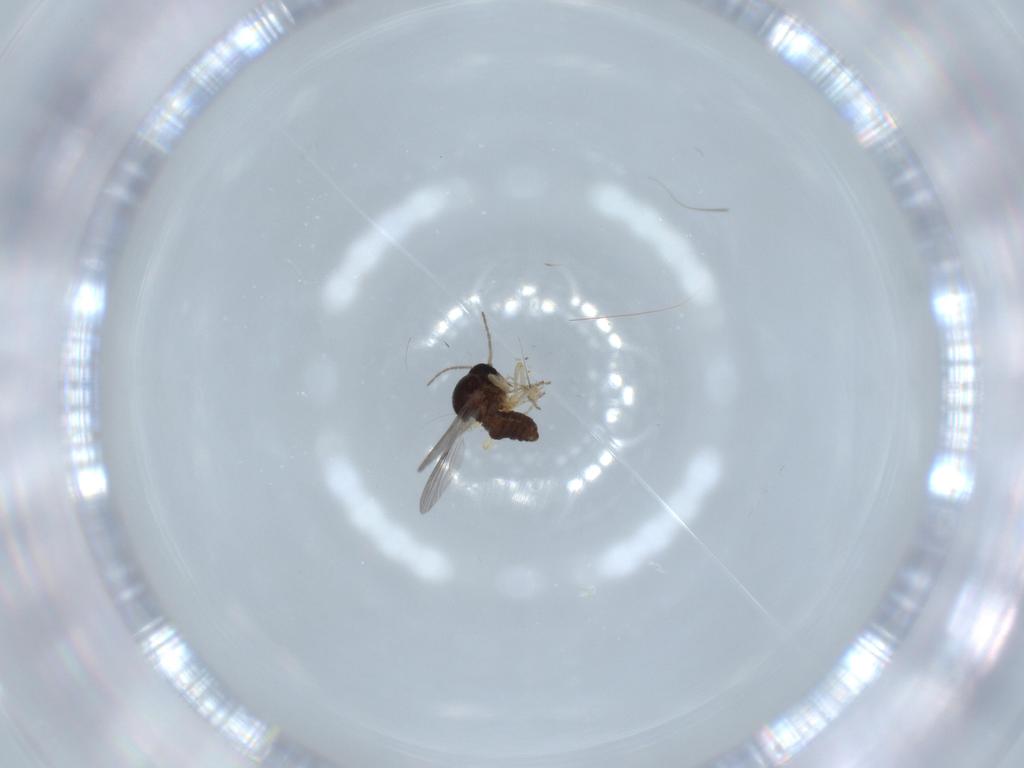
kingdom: Animalia
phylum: Arthropoda
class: Insecta
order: Diptera
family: Ceratopogonidae
